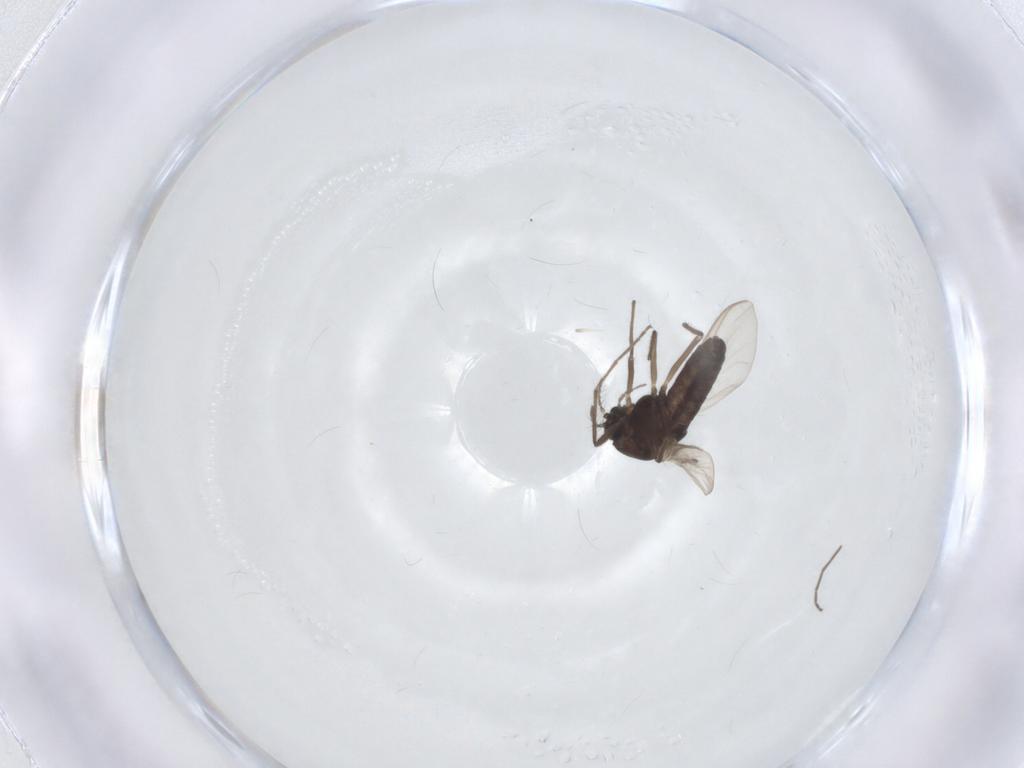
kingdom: Animalia
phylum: Arthropoda
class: Insecta
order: Diptera
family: Chironomidae
